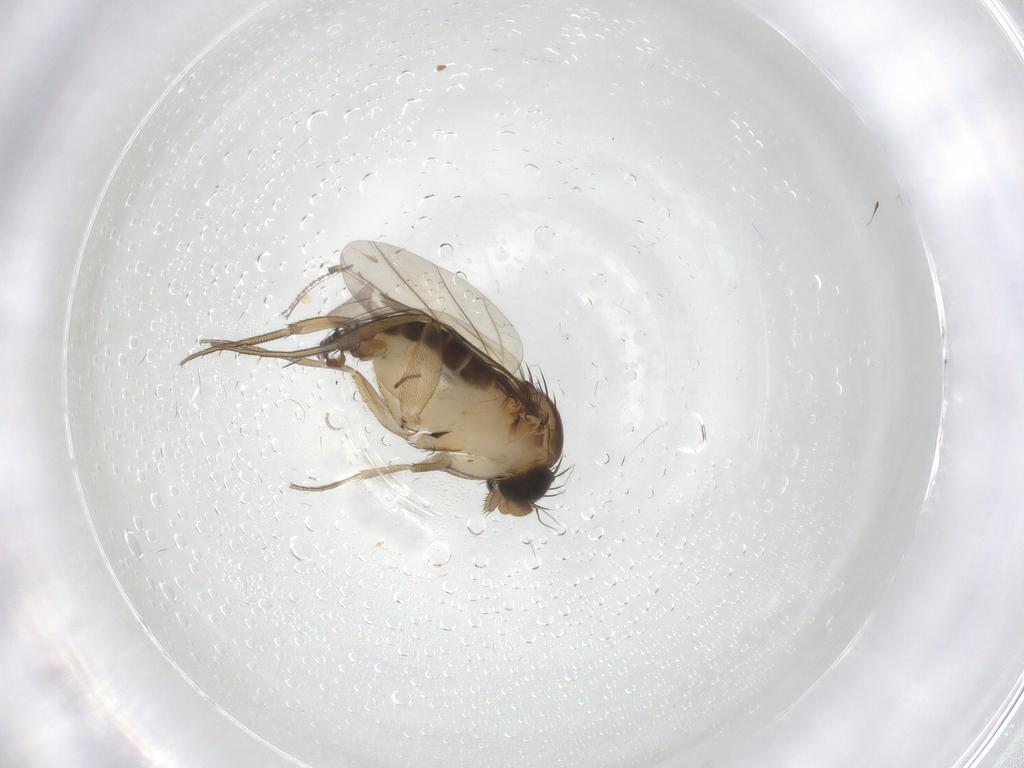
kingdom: Animalia
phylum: Arthropoda
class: Insecta
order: Diptera
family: Phoridae
